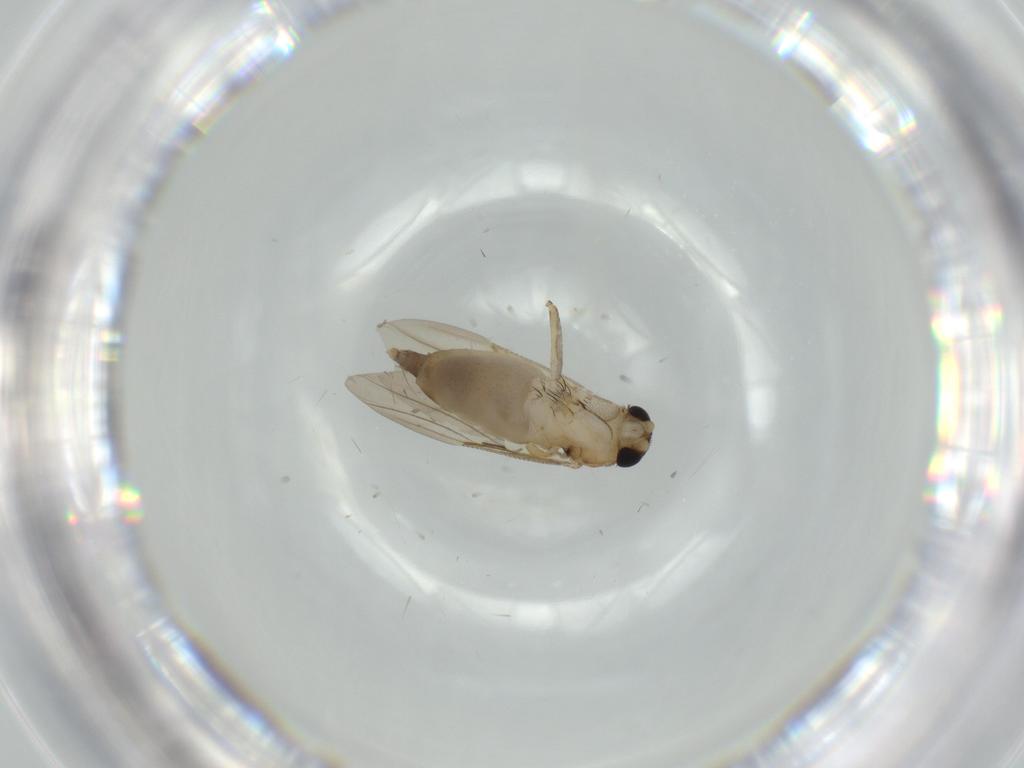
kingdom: Animalia
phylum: Arthropoda
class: Insecta
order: Diptera
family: Phoridae
